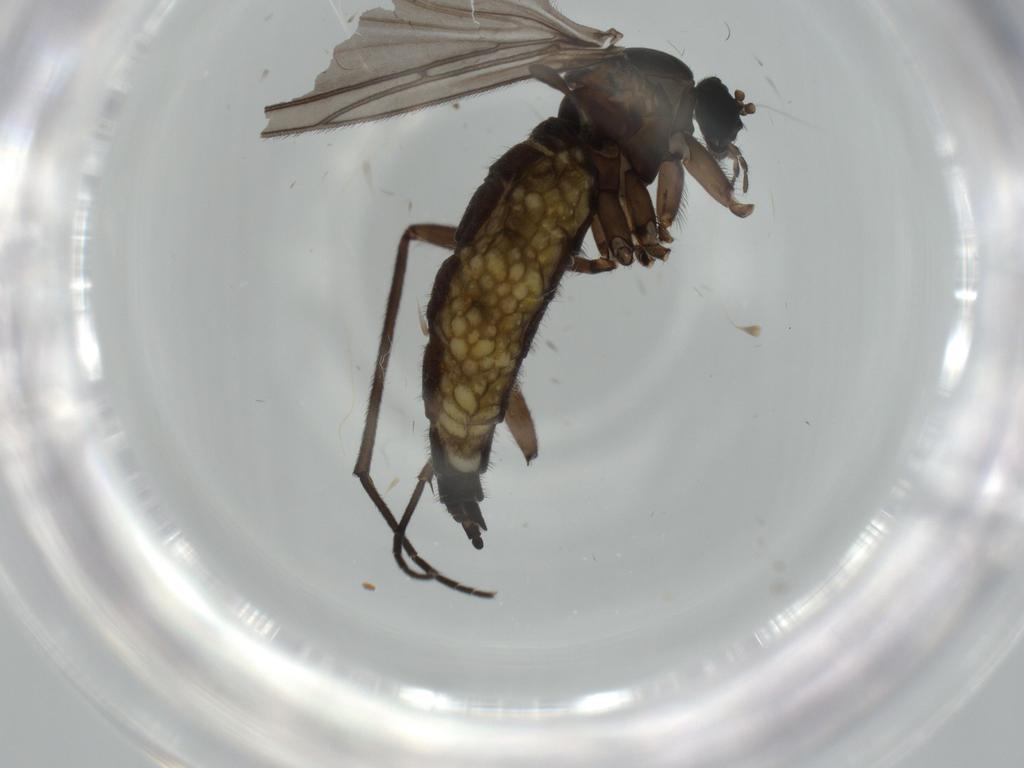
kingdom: Animalia
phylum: Arthropoda
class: Insecta
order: Diptera
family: Sciaridae
